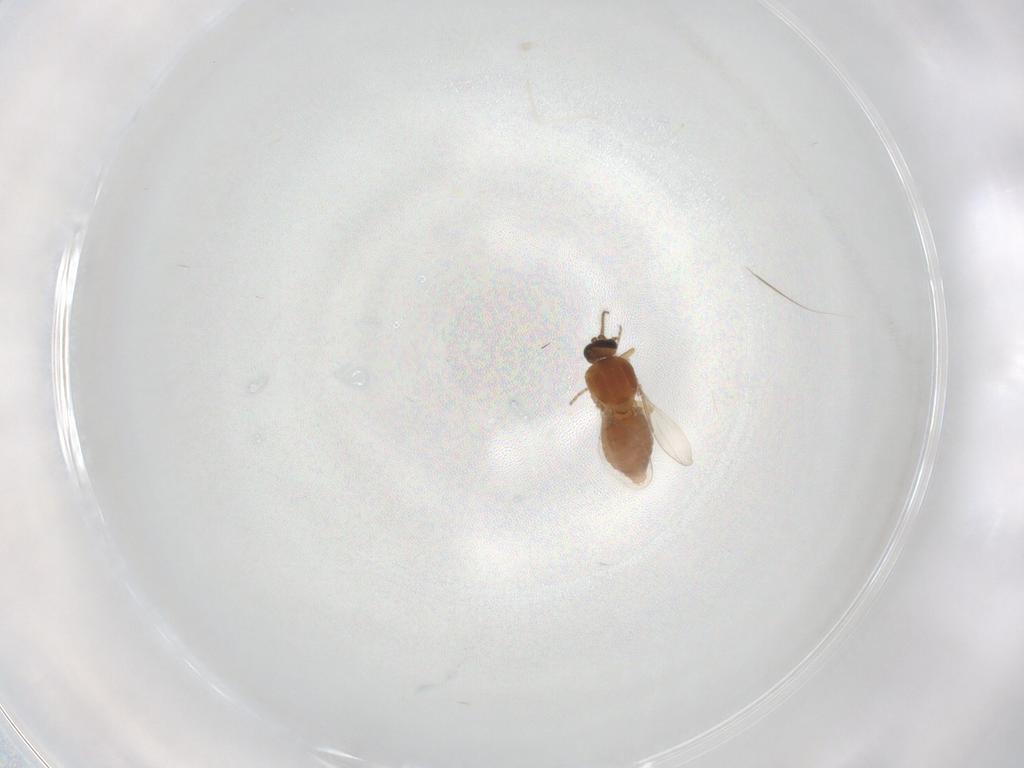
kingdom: Animalia
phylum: Arthropoda
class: Insecta
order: Diptera
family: Ceratopogonidae
